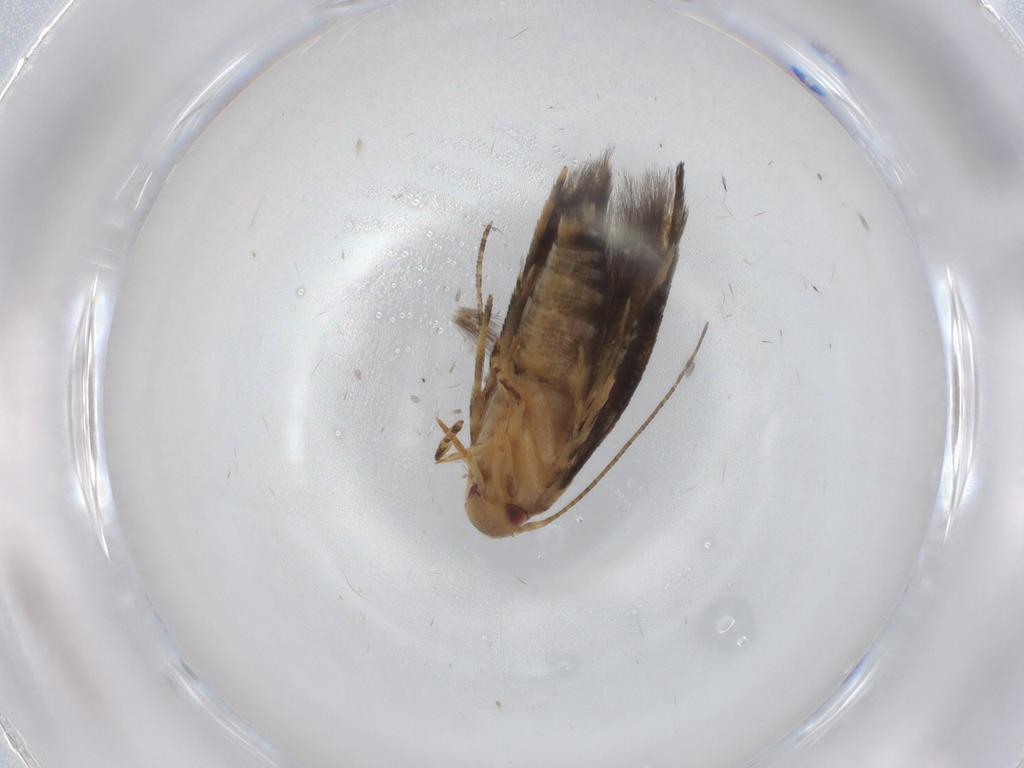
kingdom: Animalia
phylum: Arthropoda
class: Insecta
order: Lepidoptera
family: Momphidae
